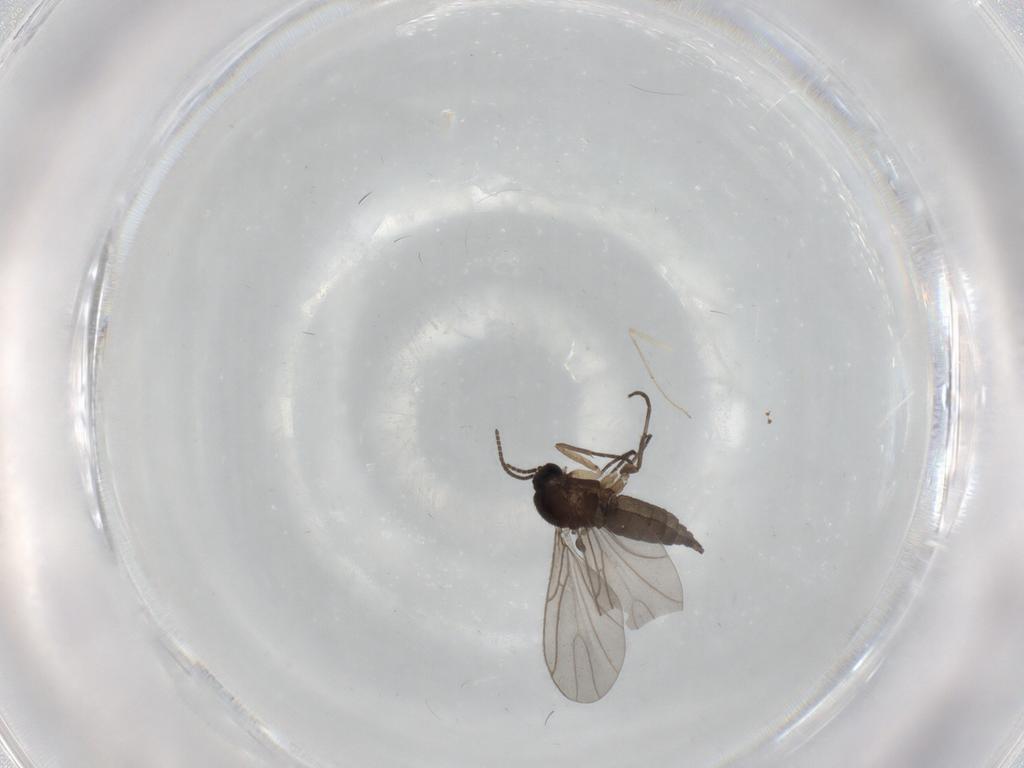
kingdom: Animalia
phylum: Arthropoda
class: Insecta
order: Diptera
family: Sciaridae
